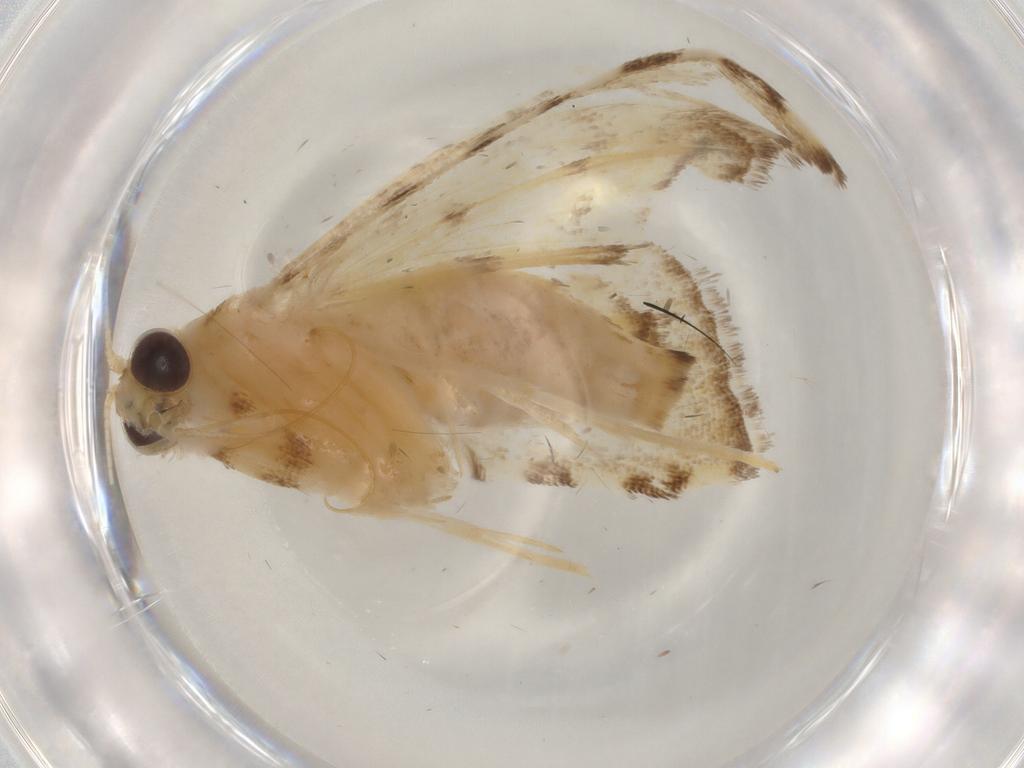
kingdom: Animalia
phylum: Arthropoda
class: Insecta
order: Lepidoptera
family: Crambidae
